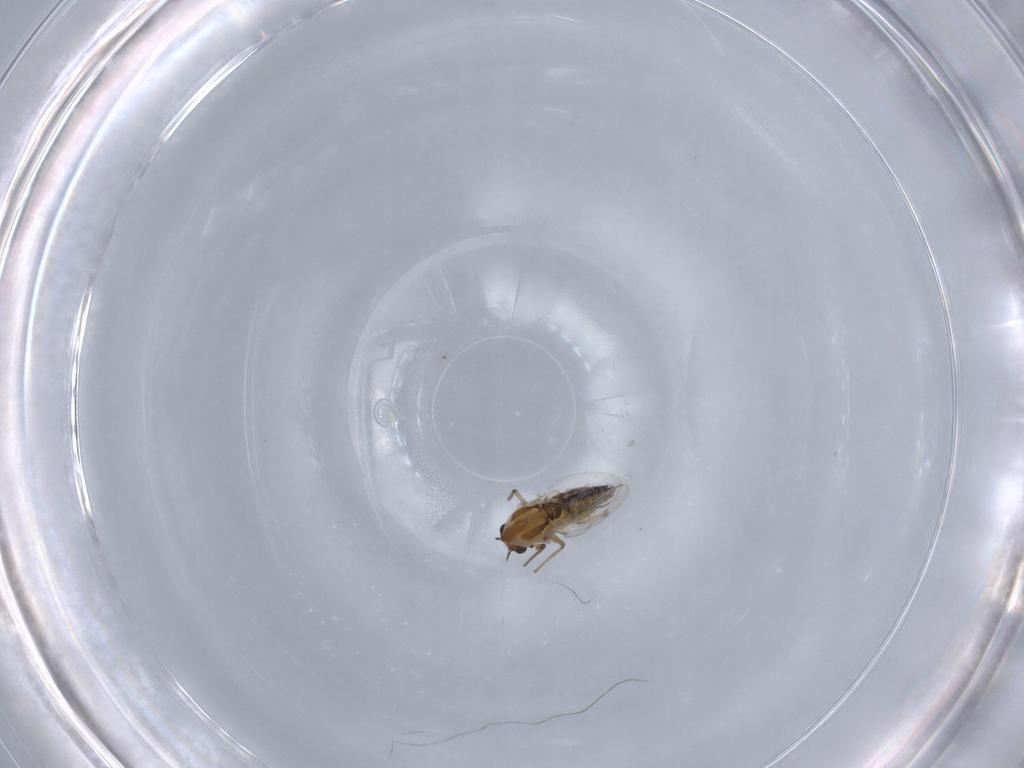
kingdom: Animalia
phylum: Arthropoda
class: Insecta
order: Diptera
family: Chironomidae
